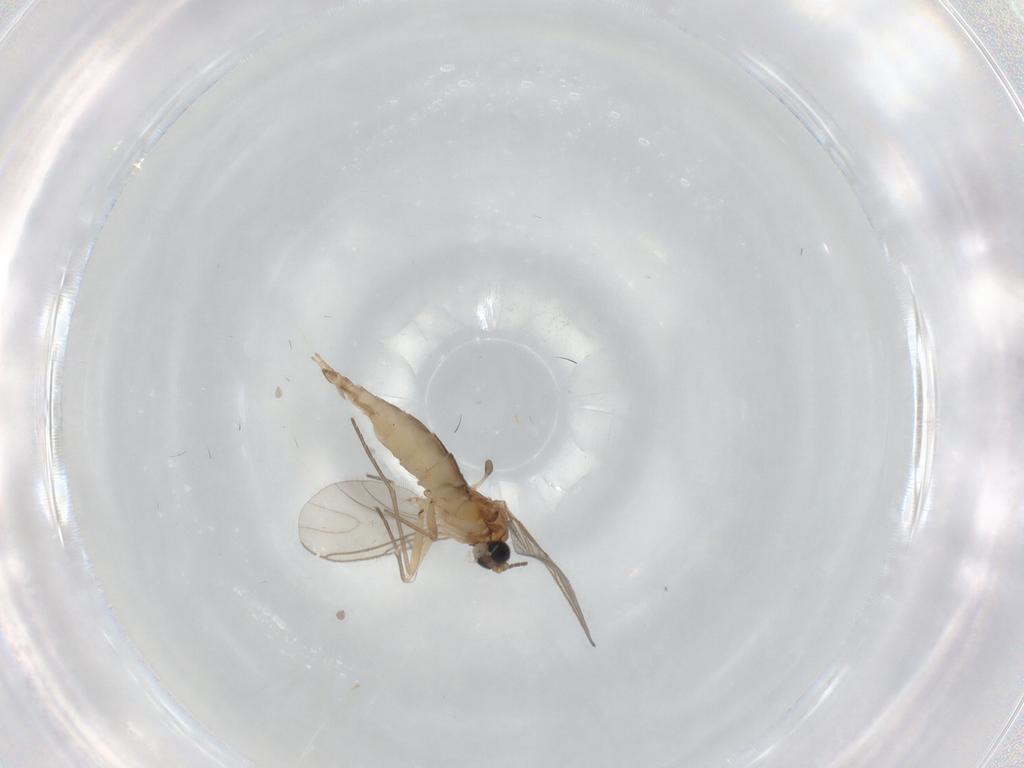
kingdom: Animalia
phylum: Arthropoda
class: Insecta
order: Diptera
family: Sciaridae
